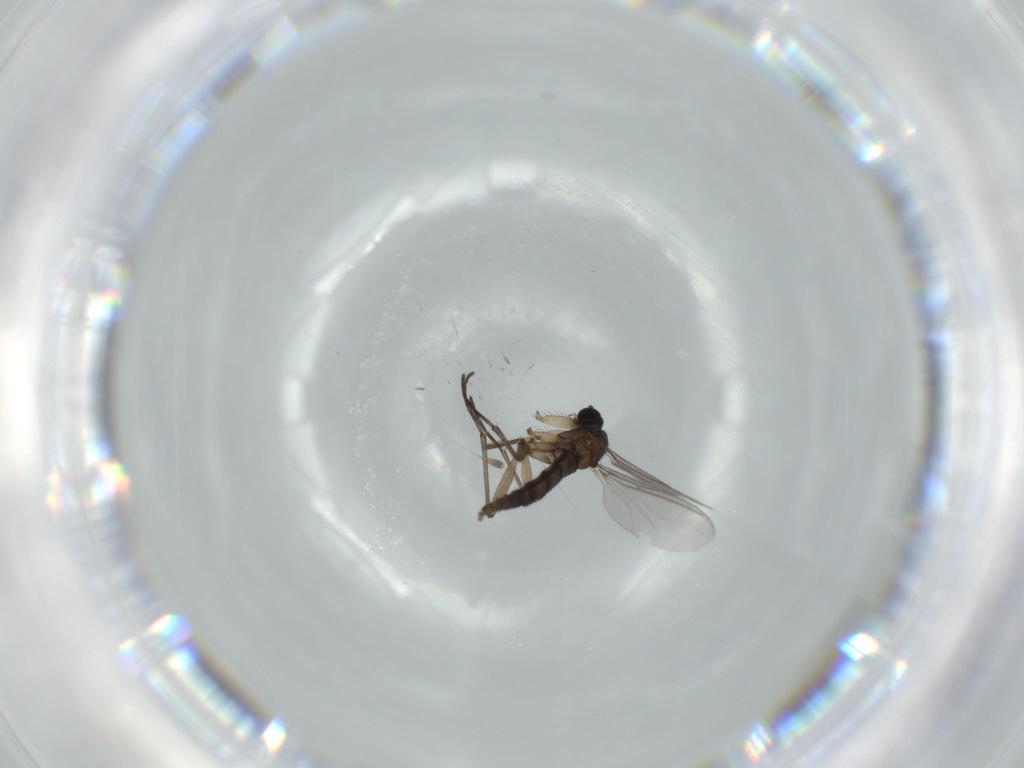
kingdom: Animalia
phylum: Arthropoda
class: Insecta
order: Diptera
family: Sciaridae
